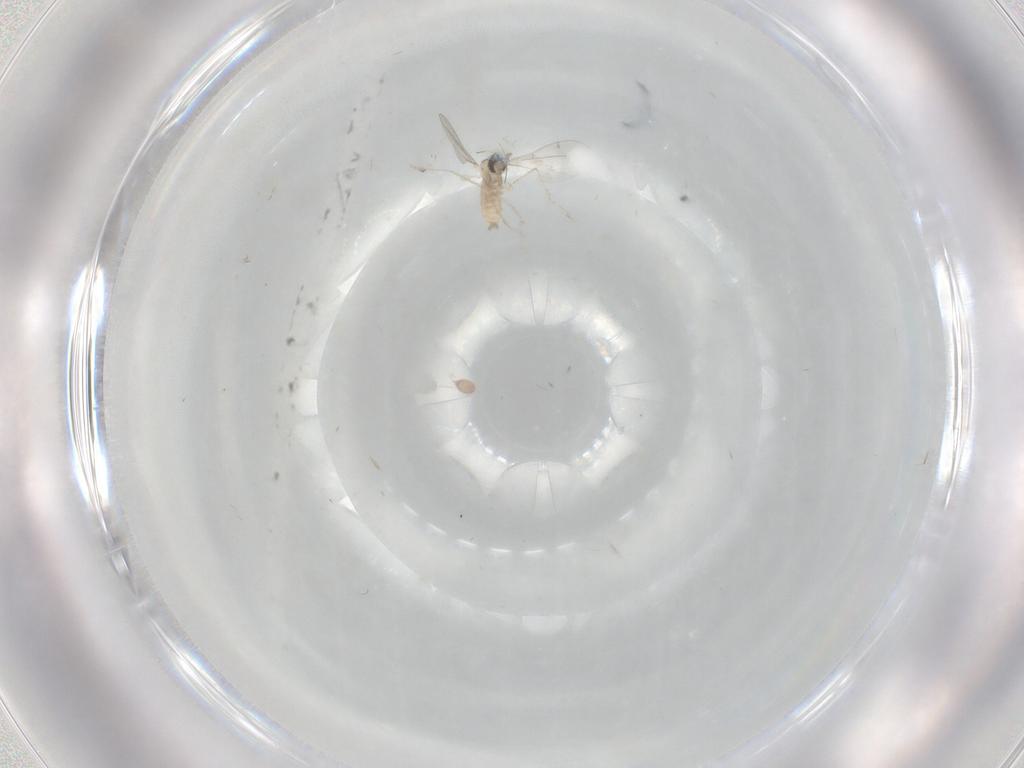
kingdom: Animalia
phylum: Arthropoda
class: Insecta
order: Diptera
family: Cecidomyiidae
